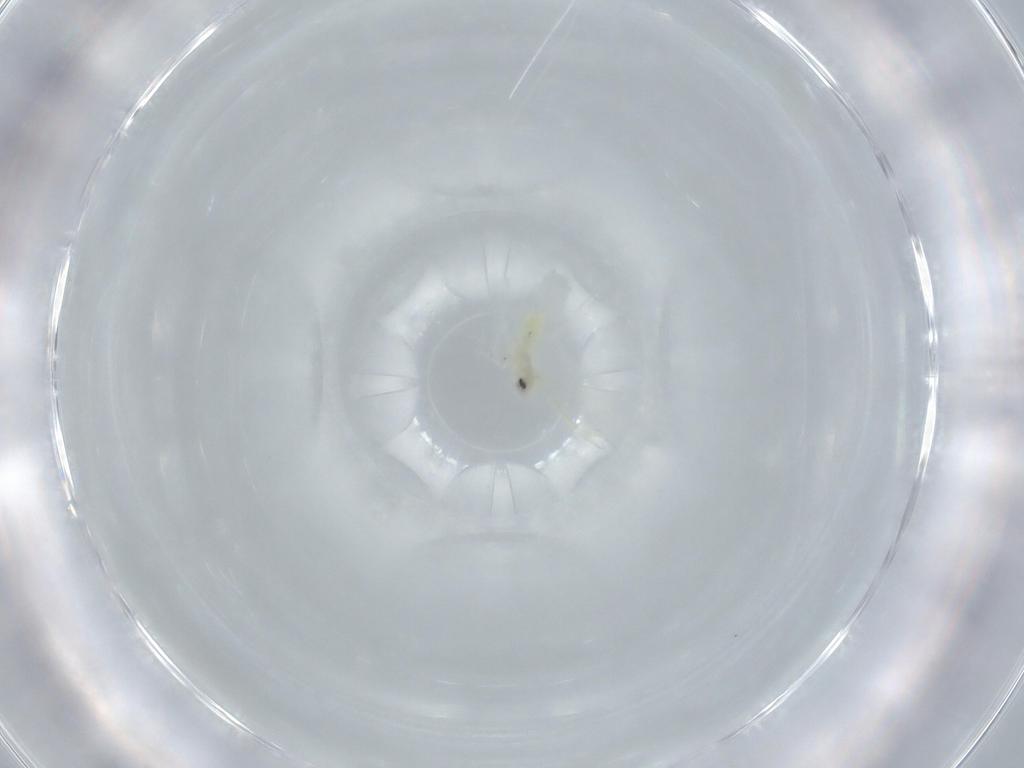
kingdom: Animalia
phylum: Arthropoda
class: Insecta
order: Hemiptera
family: Aleyrodidae
